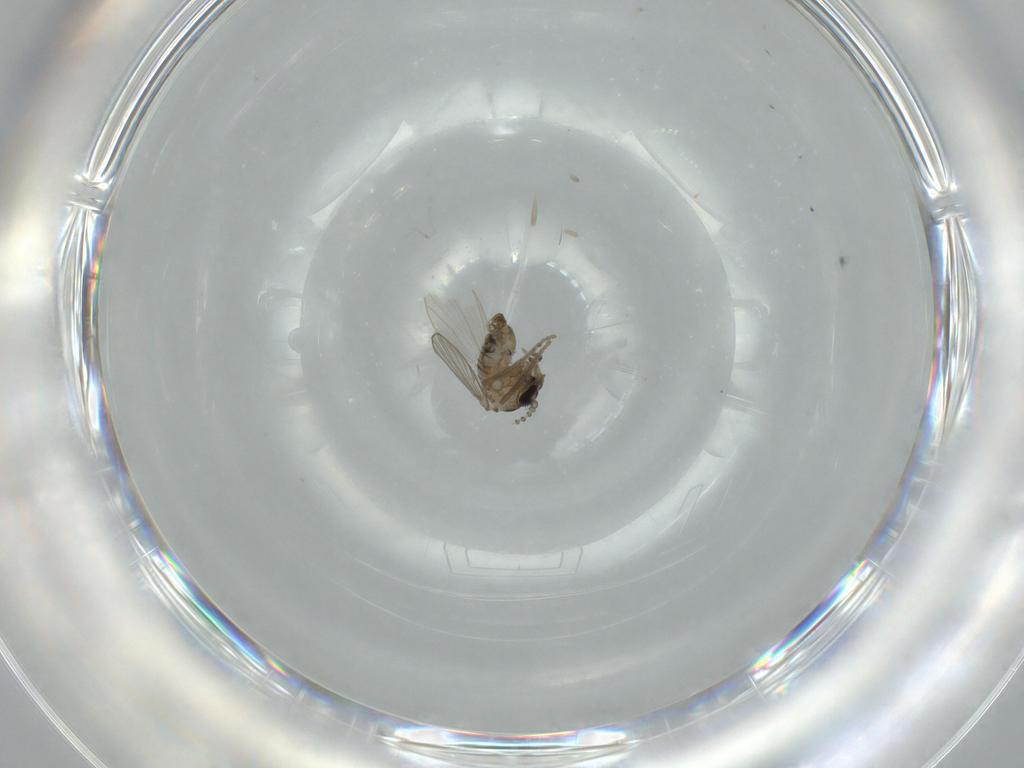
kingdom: Animalia
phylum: Arthropoda
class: Insecta
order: Diptera
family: Psychodidae
